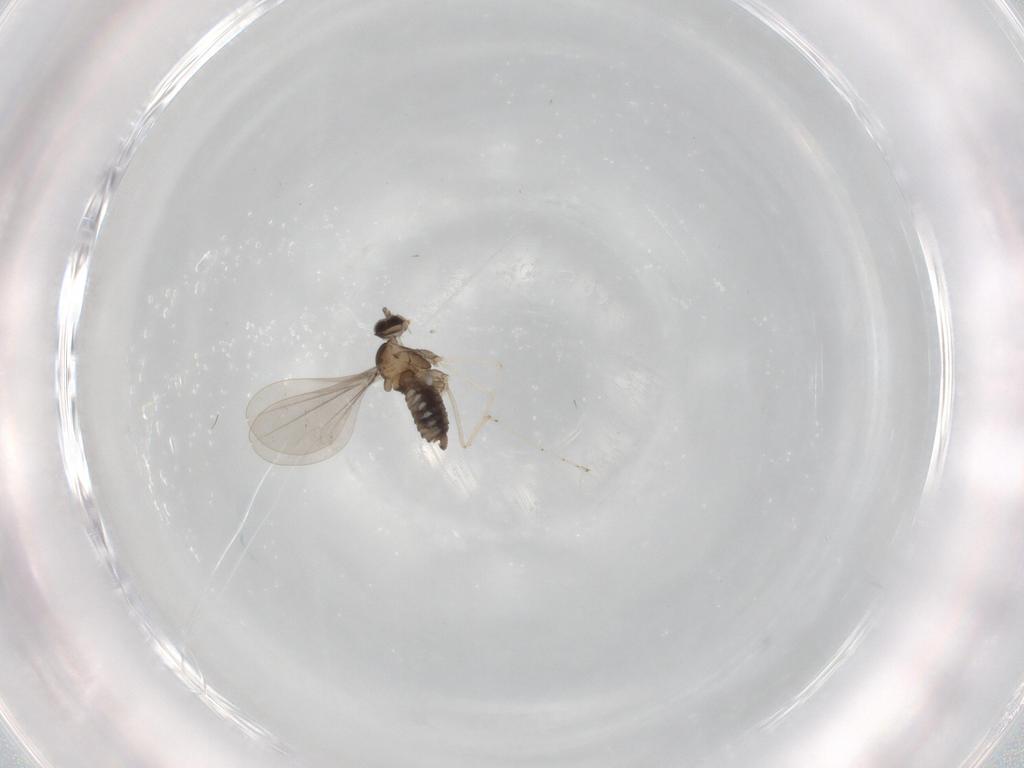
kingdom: Animalia
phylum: Arthropoda
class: Insecta
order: Diptera
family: Cecidomyiidae
